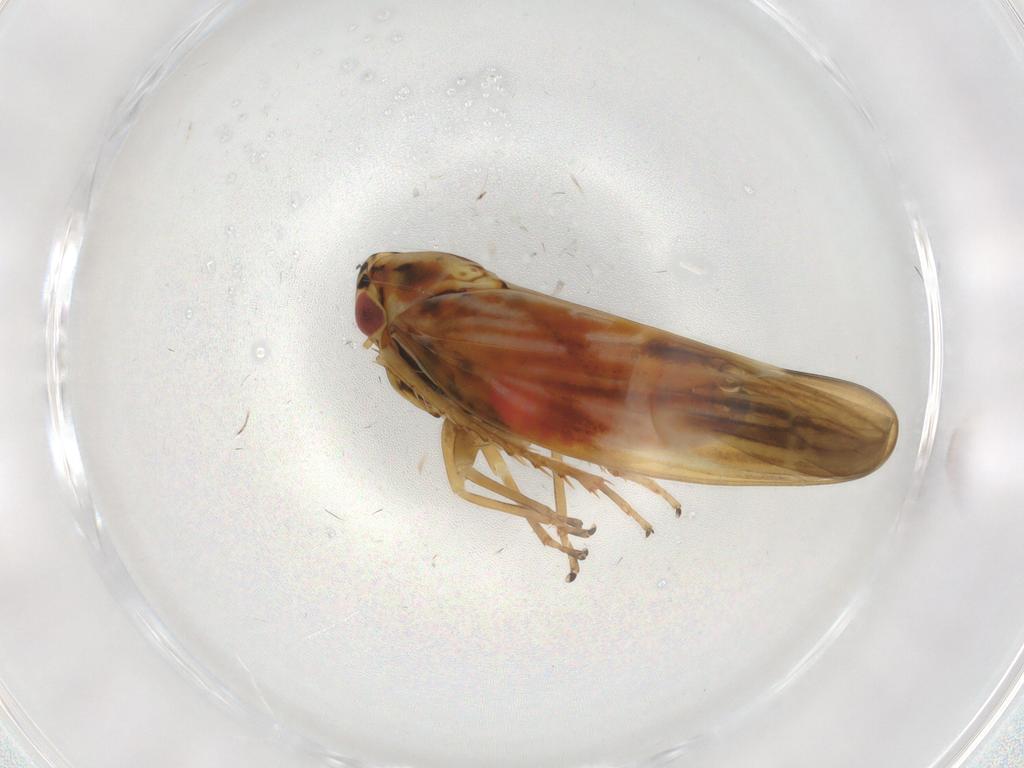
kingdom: Animalia
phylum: Arthropoda
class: Insecta
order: Hemiptera
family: Cicadellidae
